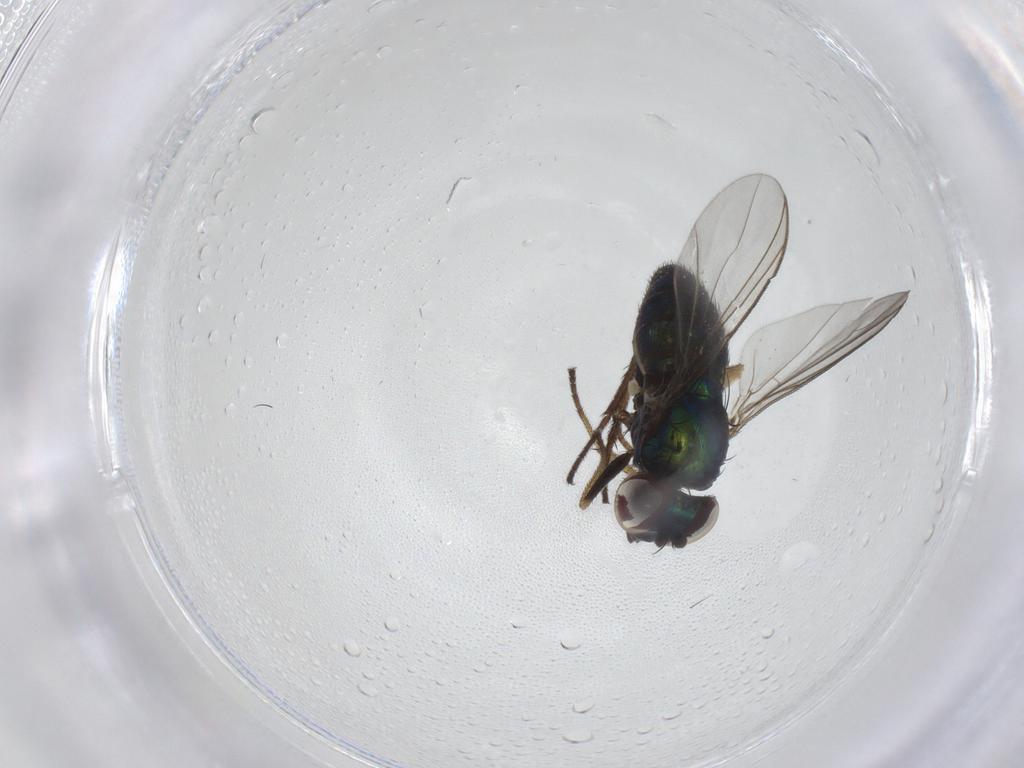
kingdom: Animalia
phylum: Arthropoda
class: Insecta
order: Diptera
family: Dolichopodidae
